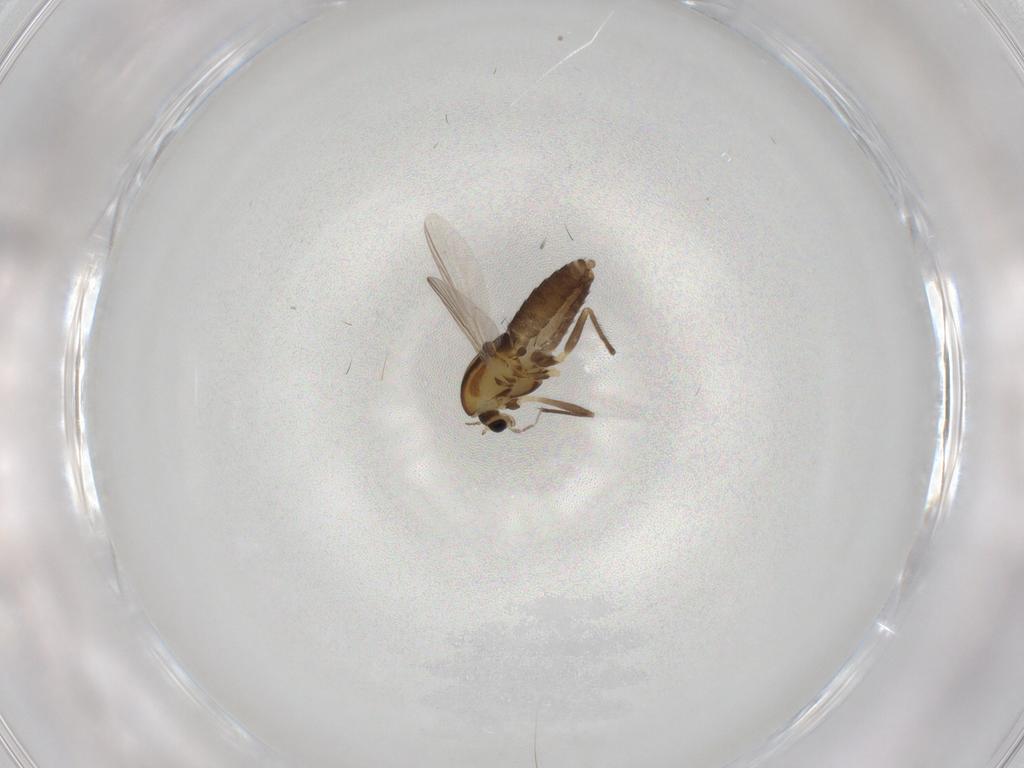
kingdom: Animalia
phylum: Arthropoda
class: Insecta
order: Diptera
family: Chironomidae
